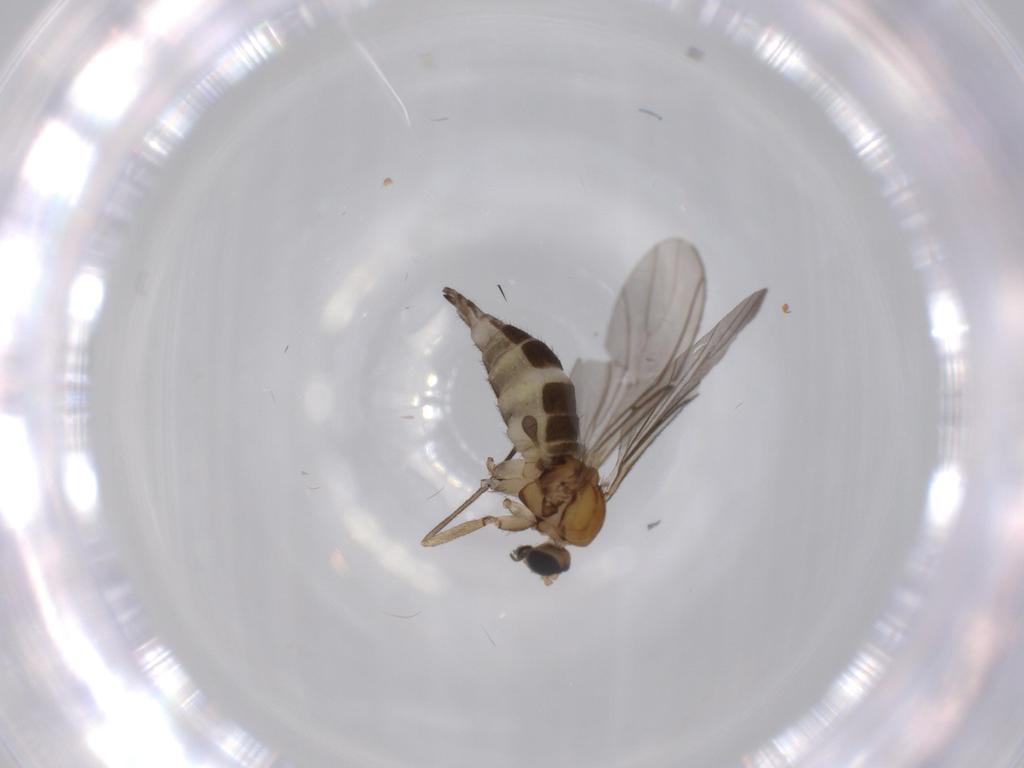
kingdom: Animalia
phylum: Arthropoda
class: Insecta
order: Diptera
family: Sciaridae
